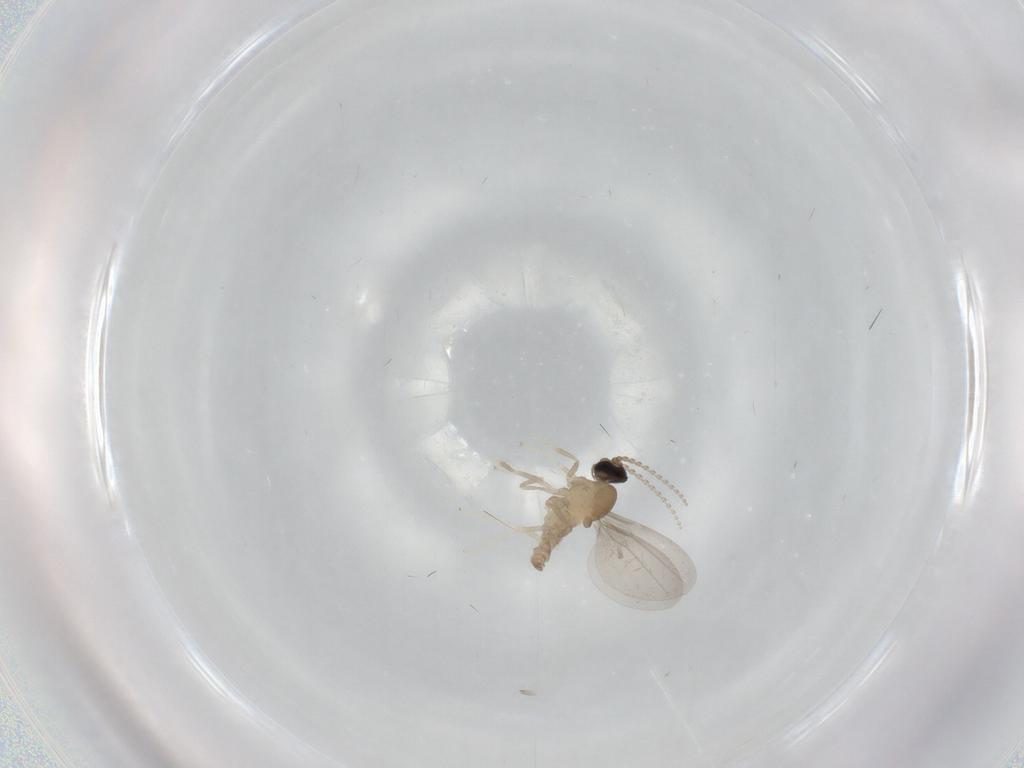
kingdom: Animalia
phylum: Arthropoda
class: Insecta
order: Diptera
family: Cecidomyiidae
